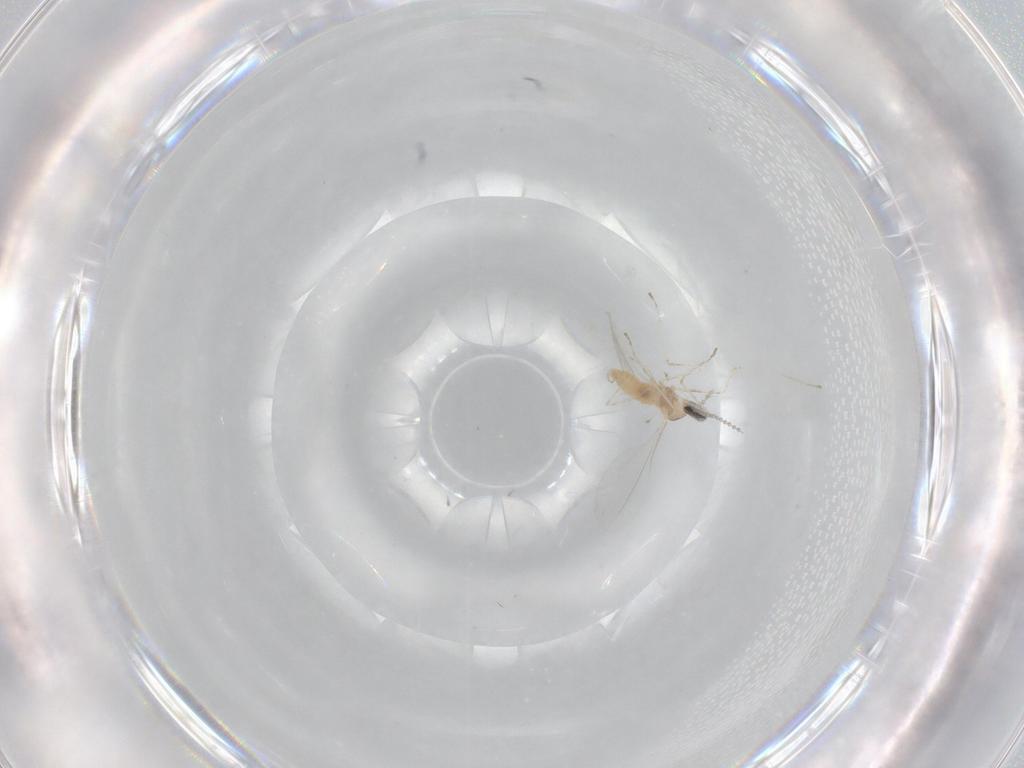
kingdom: Animalia
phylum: Arthropoda
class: Insecta
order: Diptera
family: Cecidomyiidae
